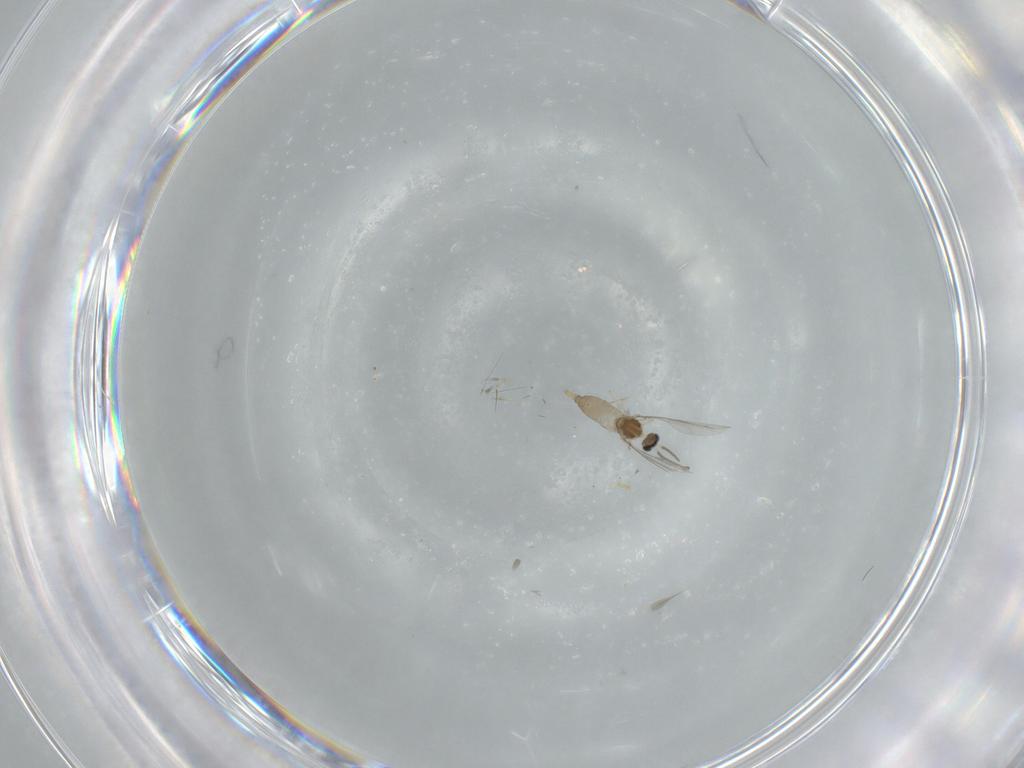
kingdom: Animalia
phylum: Arthropoda
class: Insecta
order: Diptera
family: Cecidomyiidae
